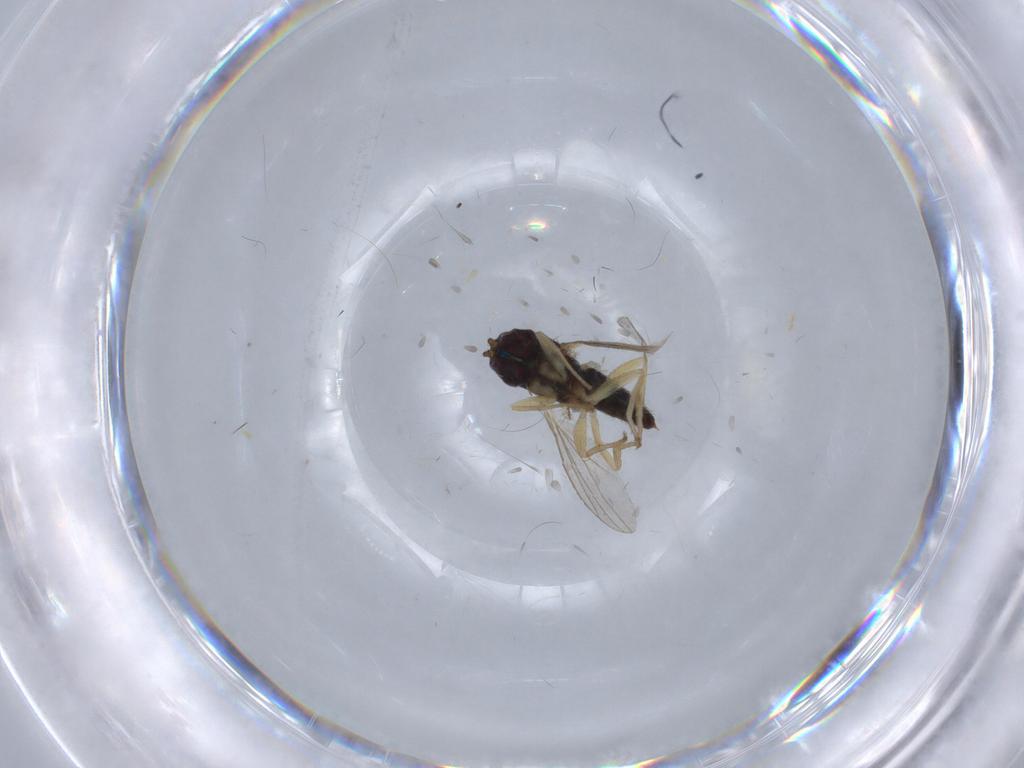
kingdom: Animalia
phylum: Arthropoda
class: Insecta
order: Diptera
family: Dolichopodidae
